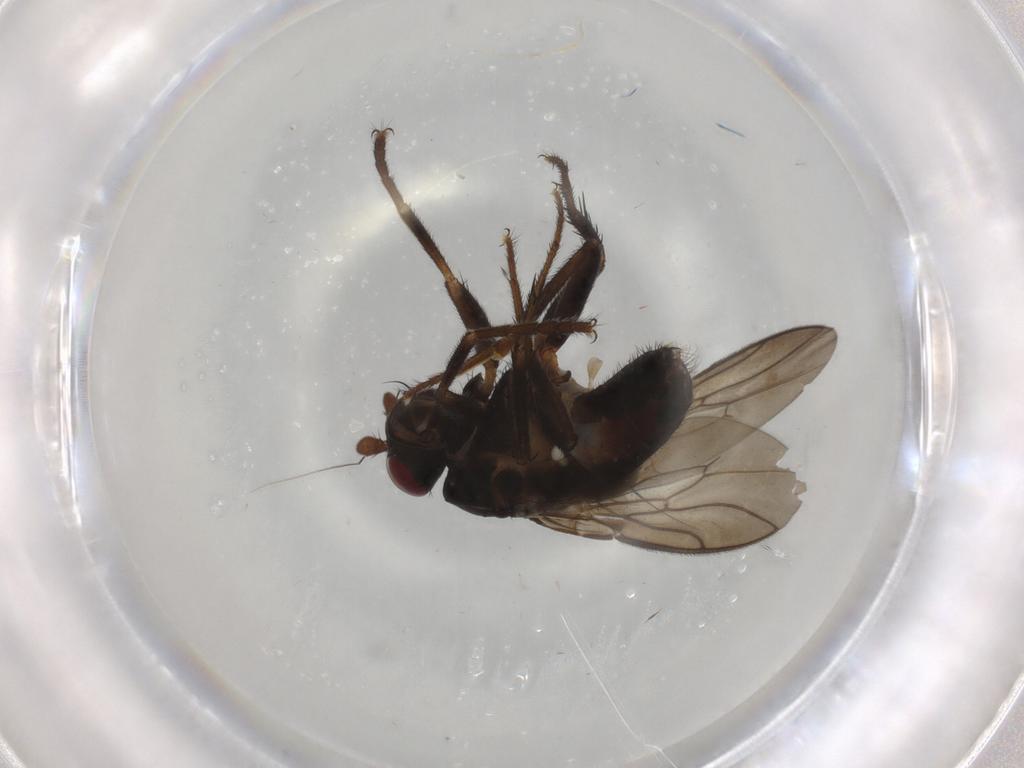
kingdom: Animalia
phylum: Arthropoda
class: Insecta
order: Diptera
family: Sphaeroceridae
